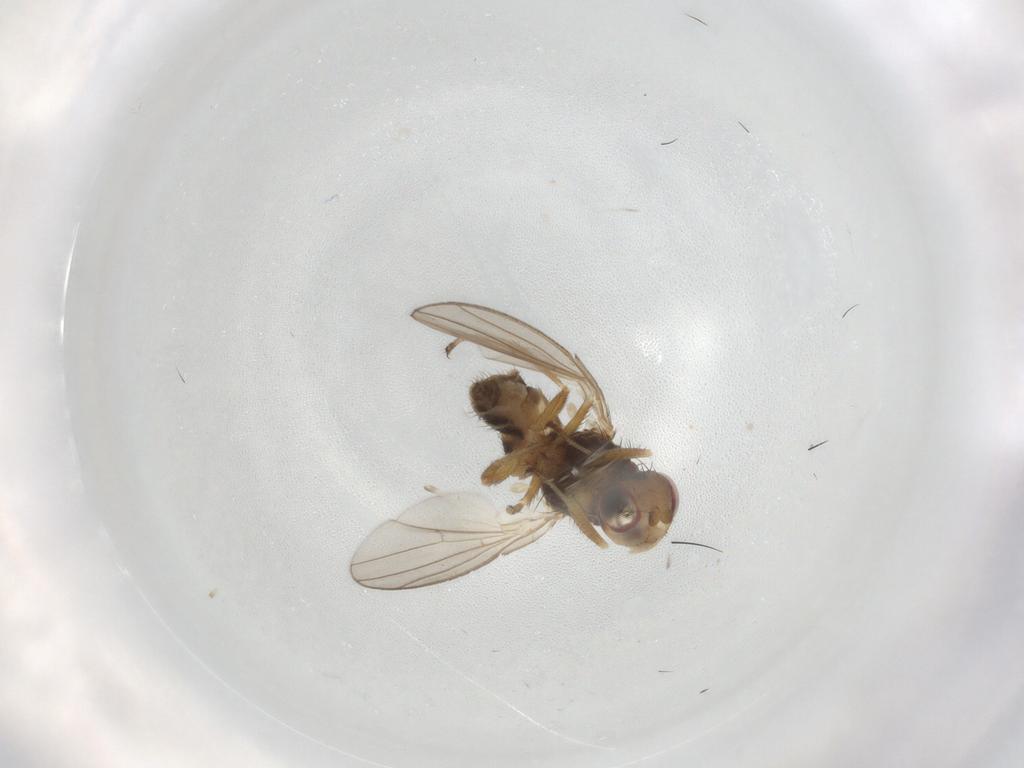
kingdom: Animalia
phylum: Arthropoda
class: Insecta
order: Diptera
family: Canacidae
